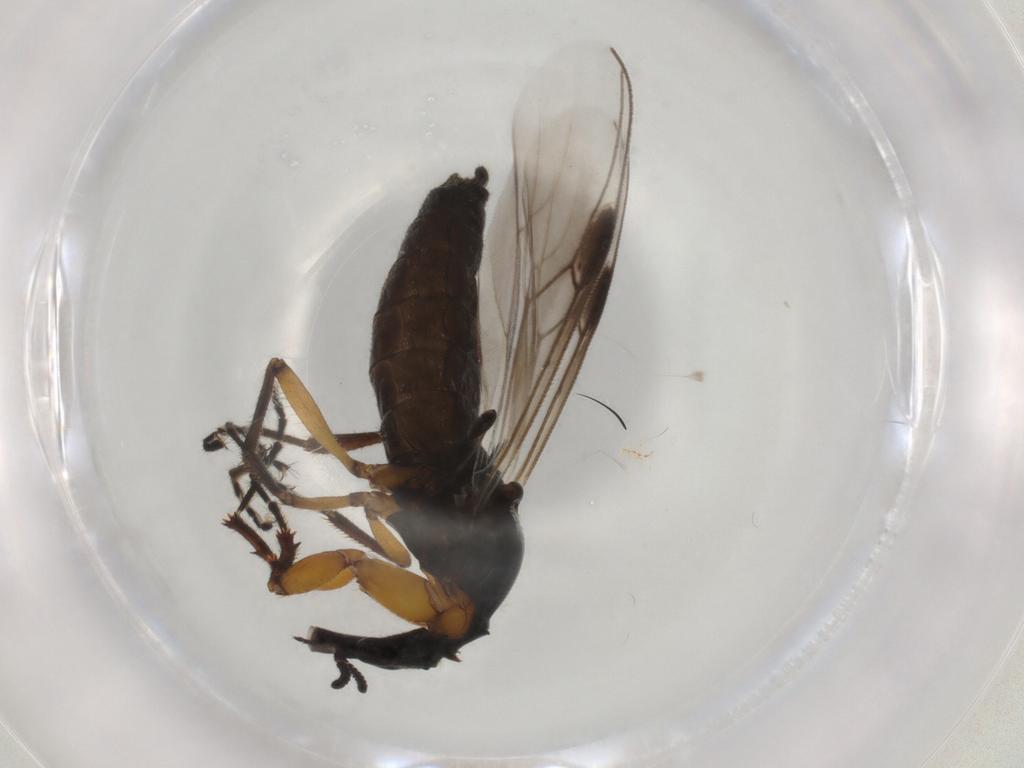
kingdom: Animalia
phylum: Arthropoda
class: Insecta
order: Diptera
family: Bibionidae
